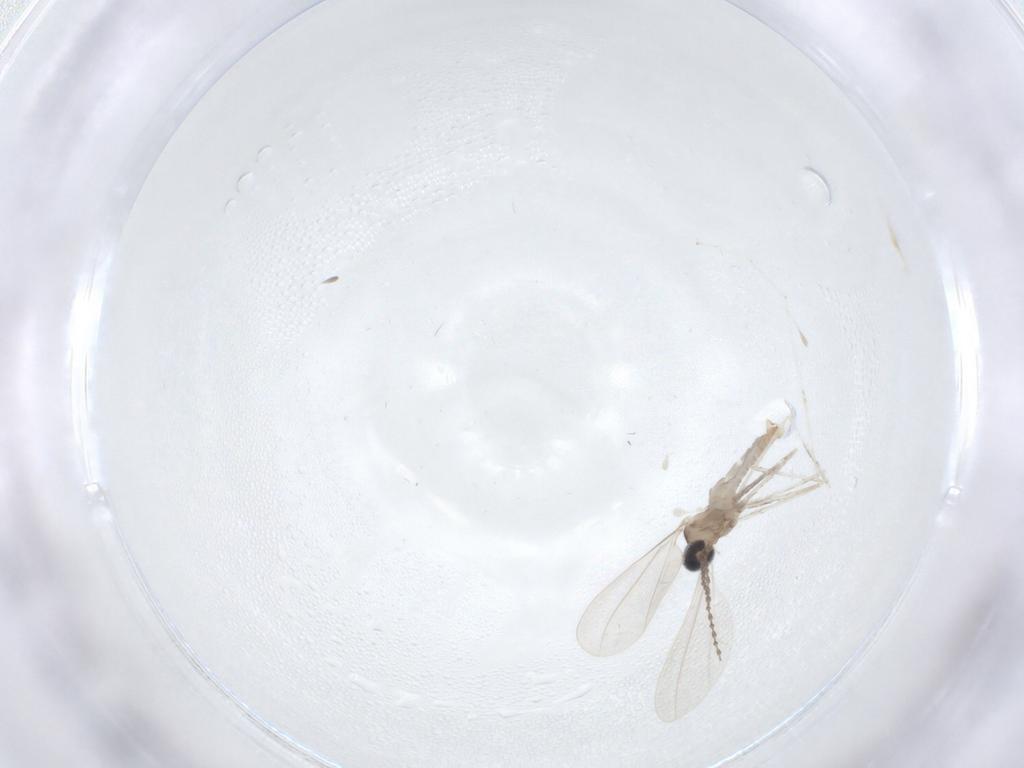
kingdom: Animalia
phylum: Arthropoda
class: Insecta
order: Diptera
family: Cecidomyiidae
